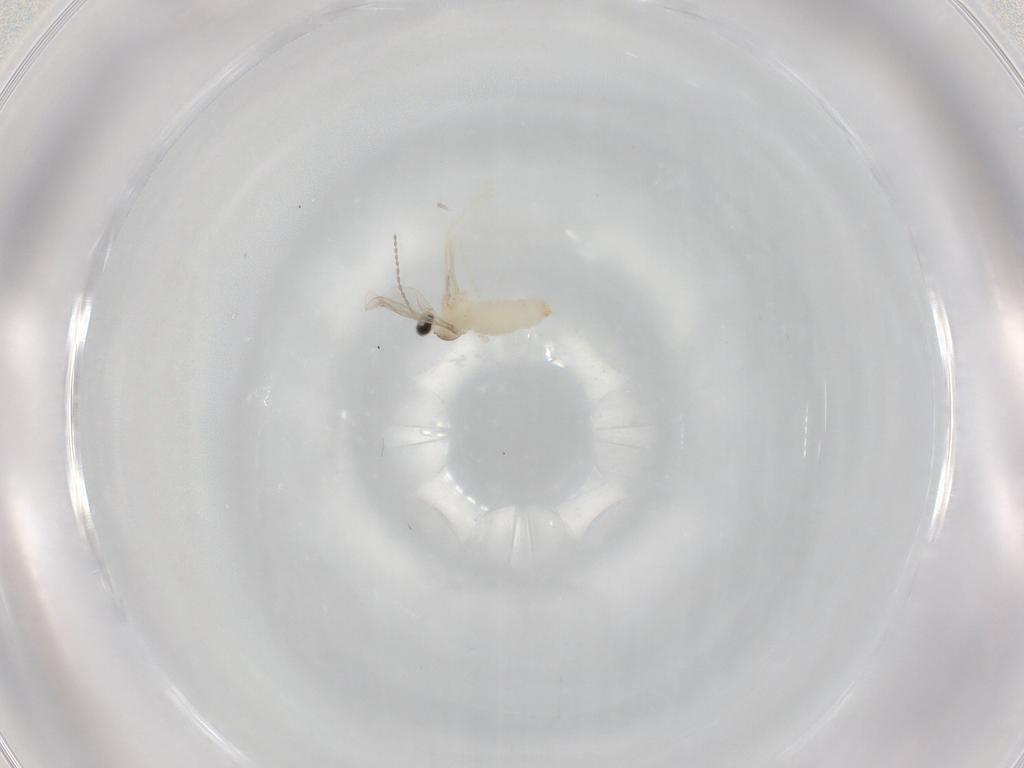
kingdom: Animalia
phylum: Arthropoda
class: Insecta
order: Diptera
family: Cecidomyiidae
